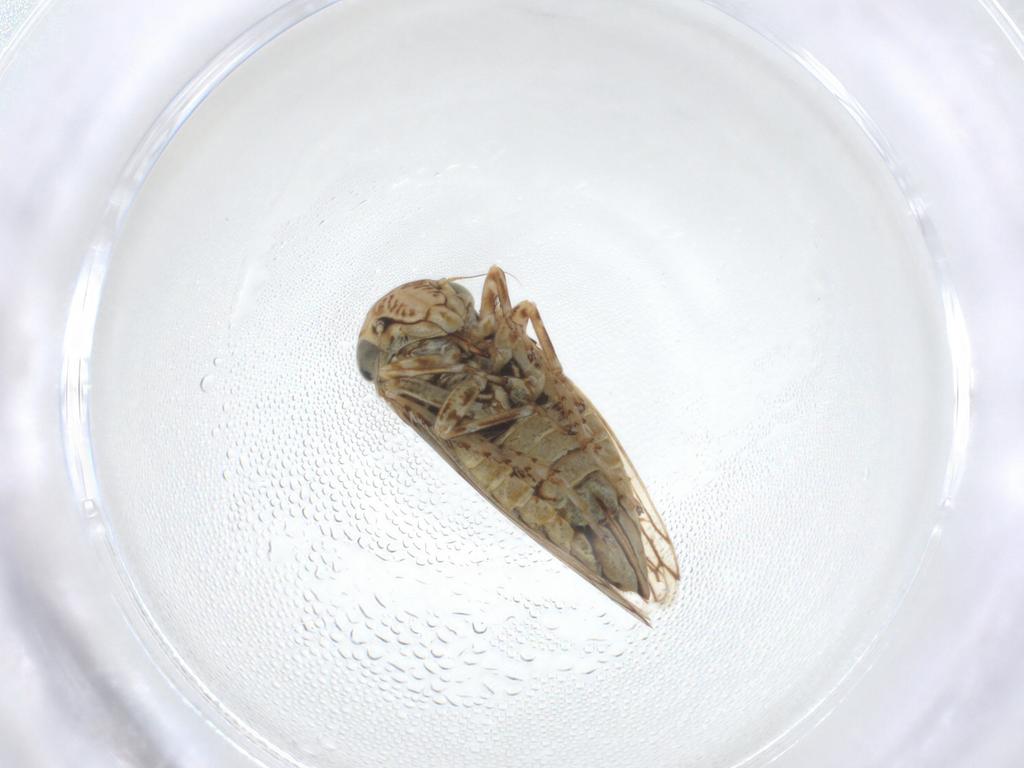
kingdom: Animalia
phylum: Arthropoda
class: Insecta
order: Hemiptera
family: Cicadellidae
